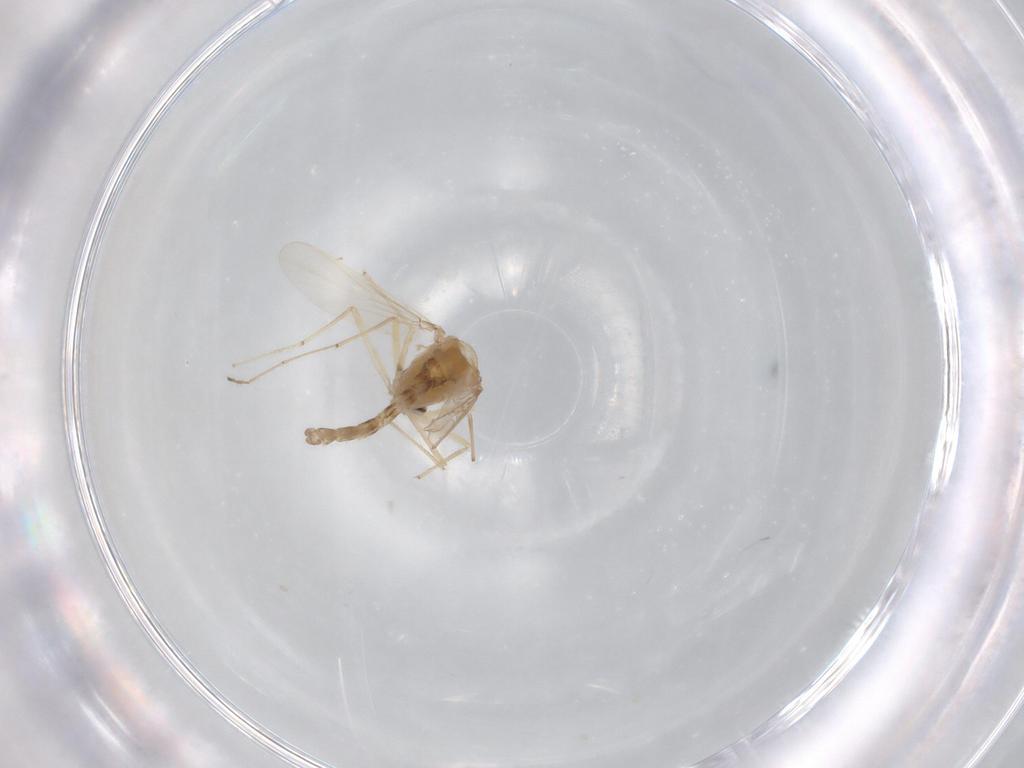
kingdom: Animalia
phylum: Arthropoda
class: Insecta
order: Diptera
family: Chironomidae
